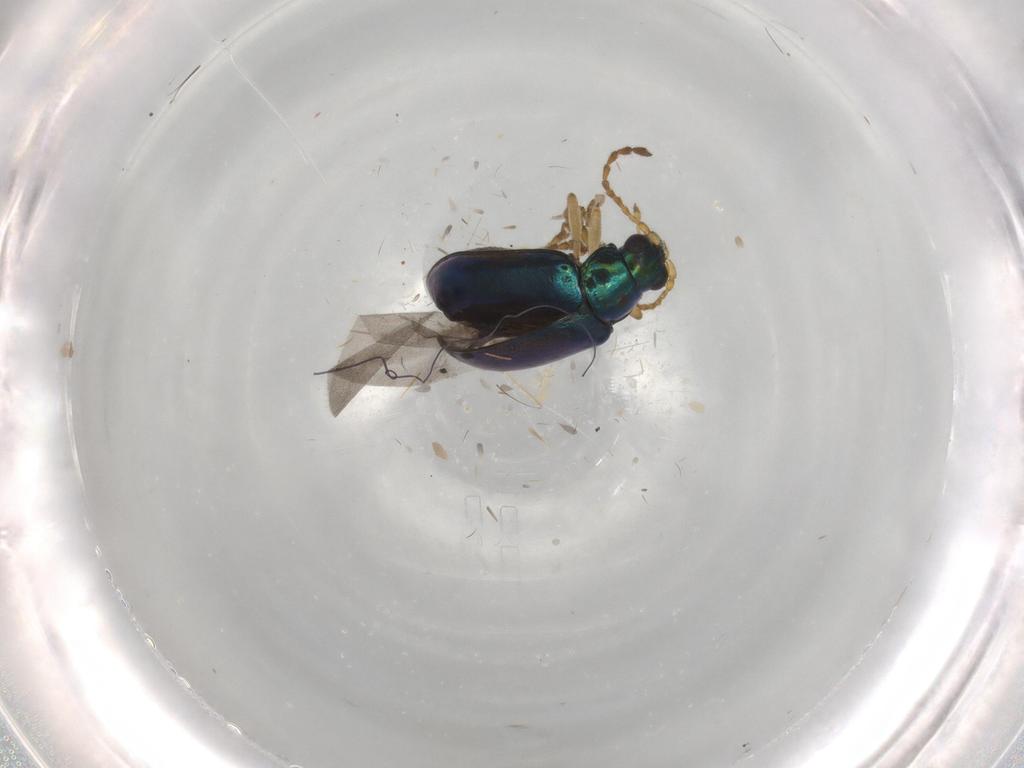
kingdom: Animalia
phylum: Arthropoda
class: Insecta
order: Coleoptera
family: Chrysomelidae
